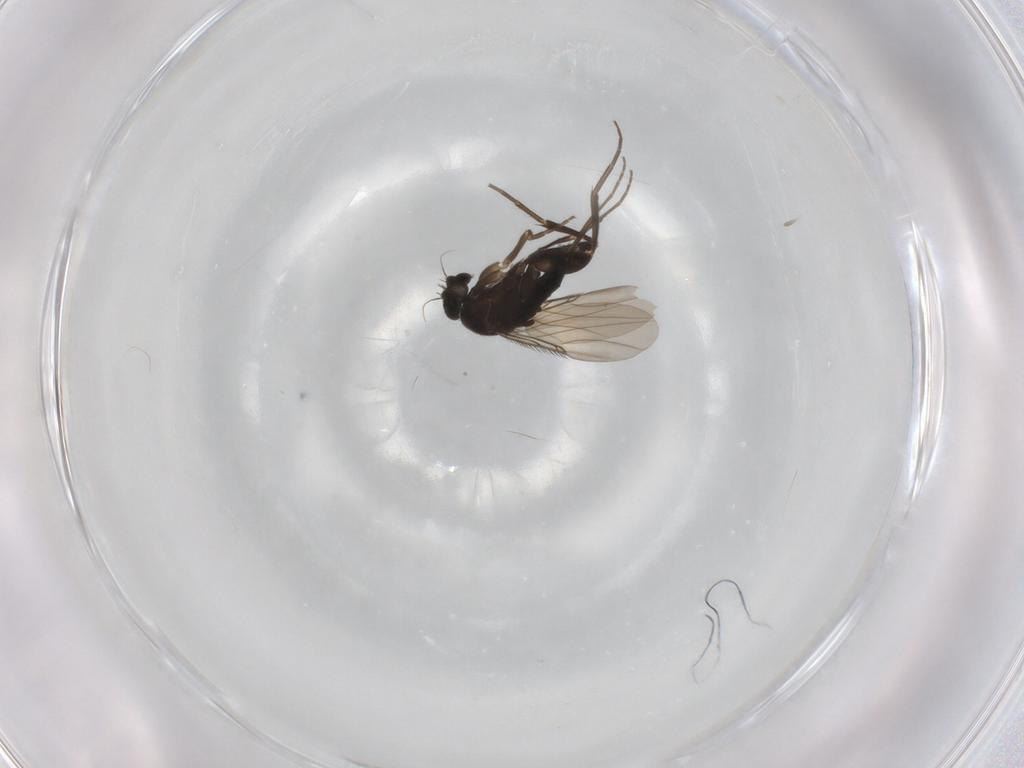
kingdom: Animalia
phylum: Arthropoda
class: Insecta
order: Diptera
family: Phoridae
